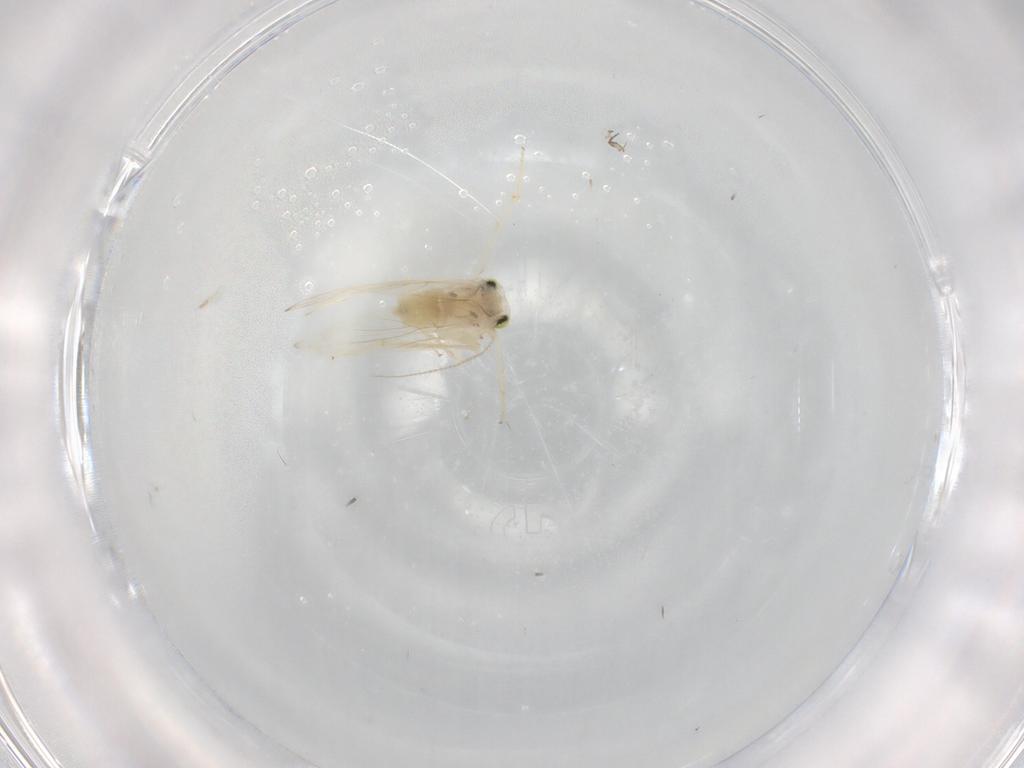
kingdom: Animalia
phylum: Arthropoda
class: Insecta
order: Psocodea
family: Lepidopsocidae
